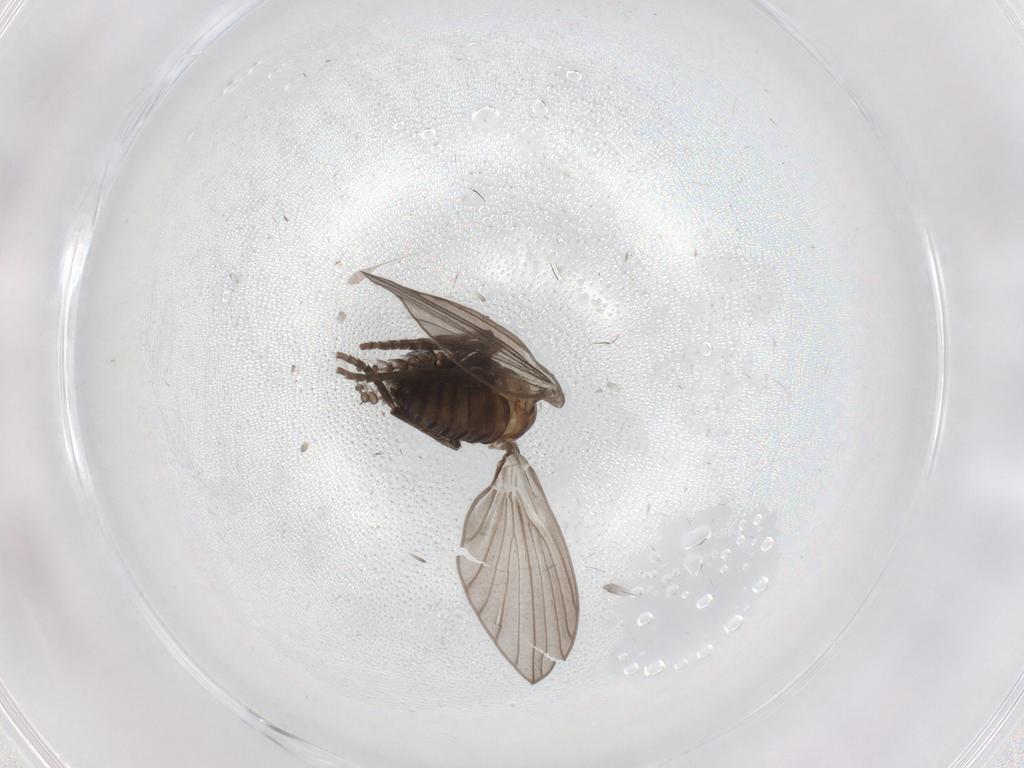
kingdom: Animalia
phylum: Arthropoda
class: Insecta
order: Diptera
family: Psychodidae
